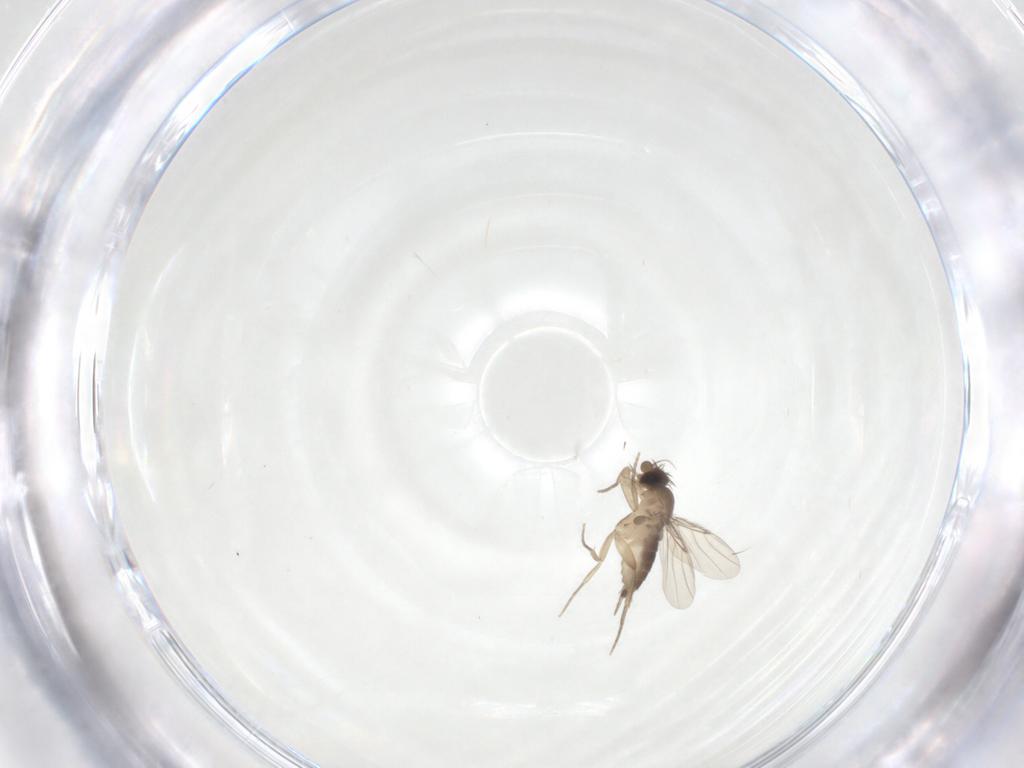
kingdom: Animalia
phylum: Arthropoda
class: Insecta
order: Diptera
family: Phoridae
